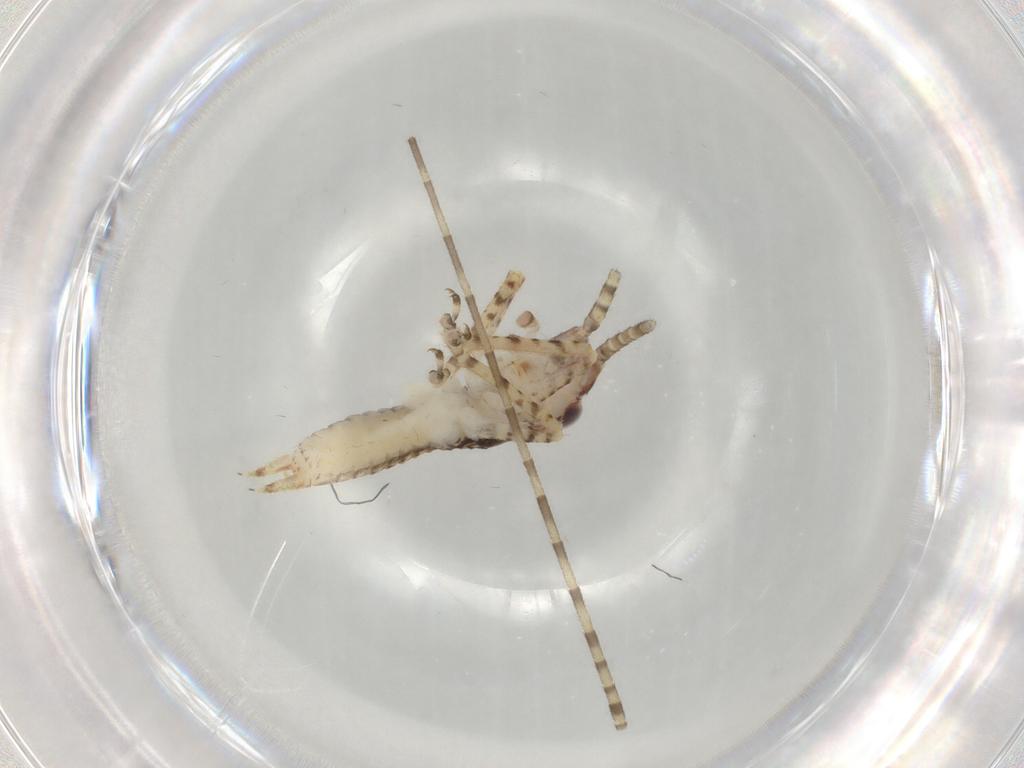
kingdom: Animalia
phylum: Arthropoda
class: Insecta
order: Orthoptera
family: Gryllidae
